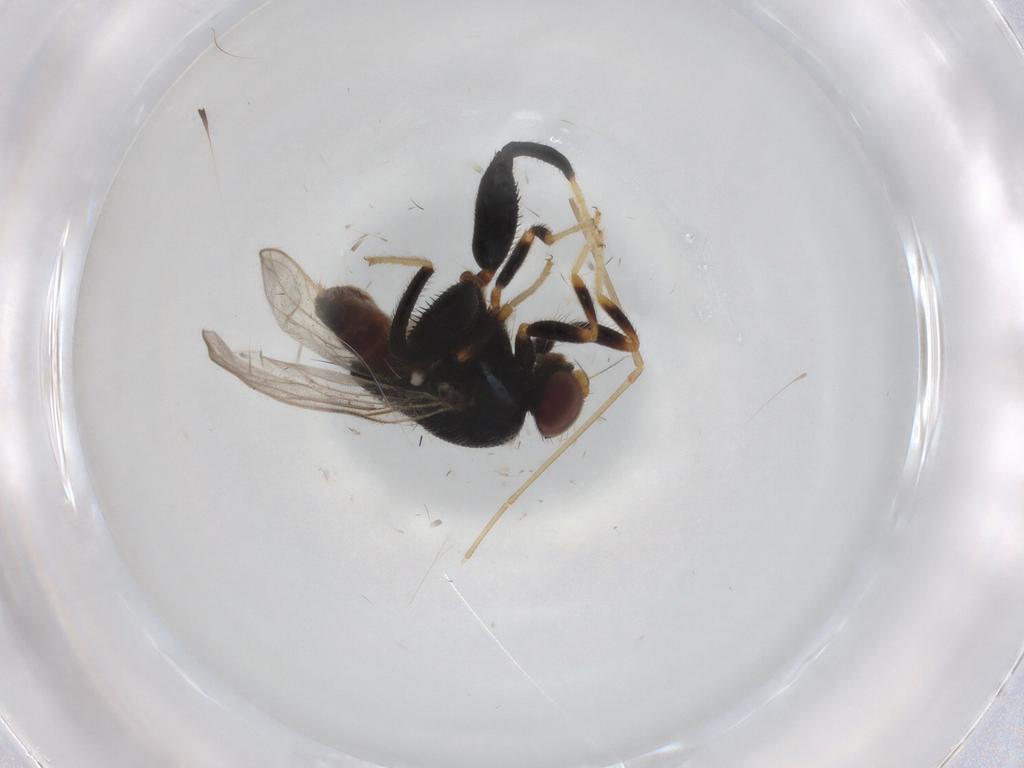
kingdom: Animalia
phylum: Arthropoda
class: Insecta
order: Diptera
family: Chloropidae
